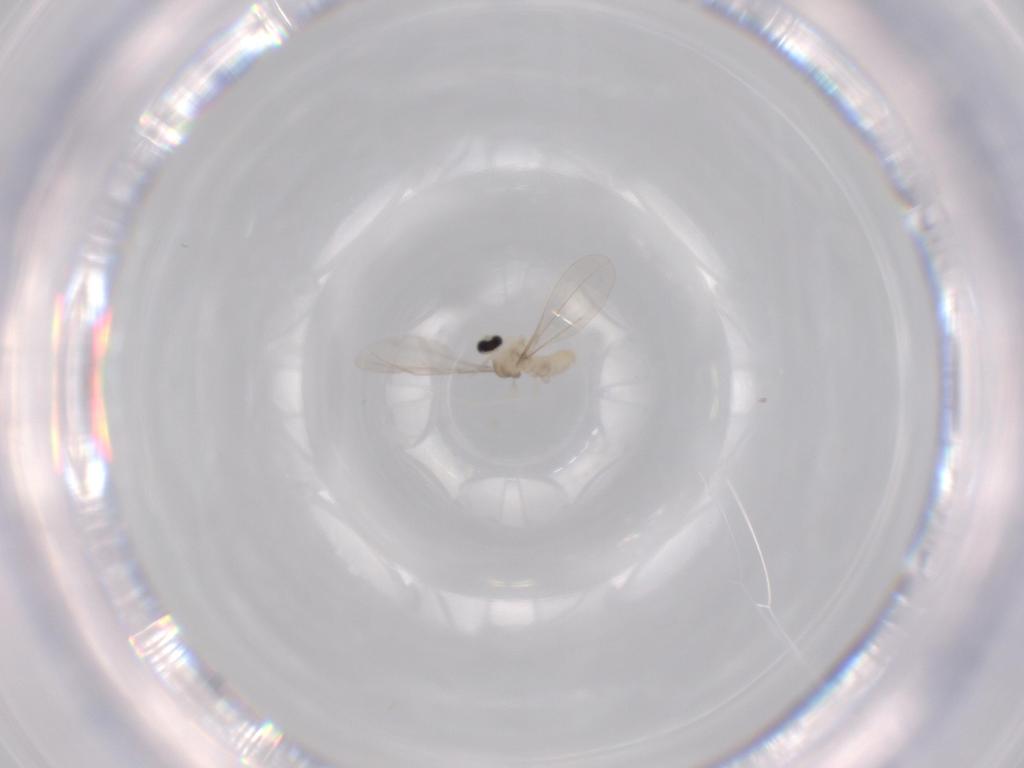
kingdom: Animalia
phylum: Arthropoda
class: Insecta
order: Diptera
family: Cecidomyiidae
